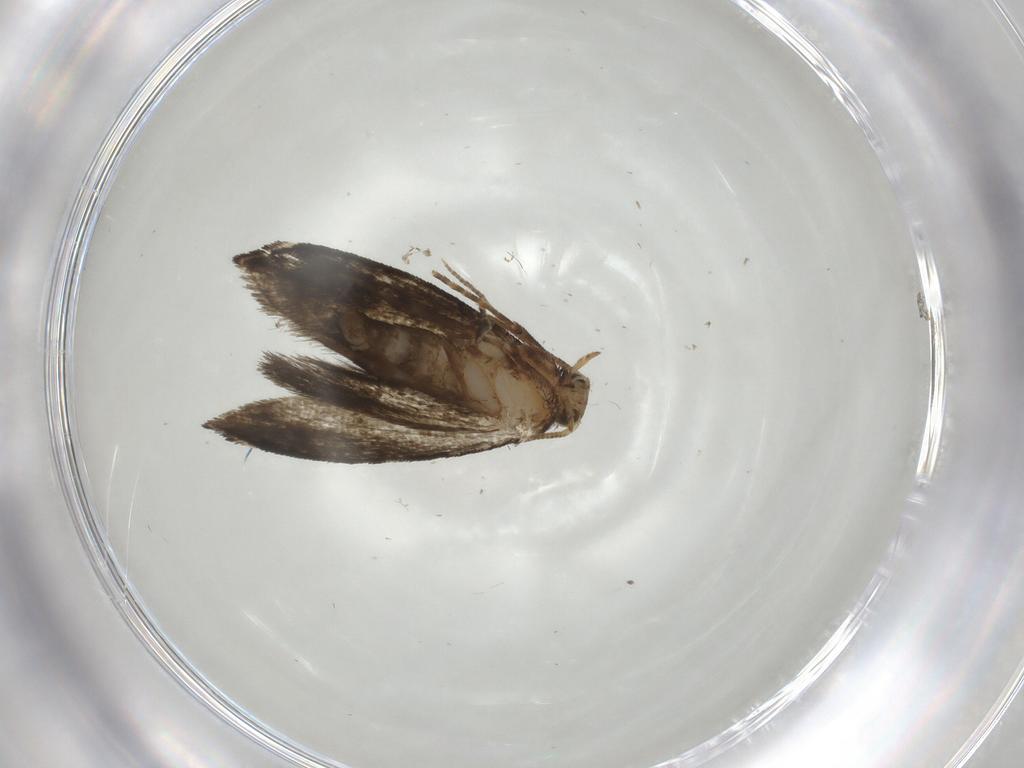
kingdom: Animalia
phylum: Arthropoda
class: Insecta
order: Lepidoptera
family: Tineidae
